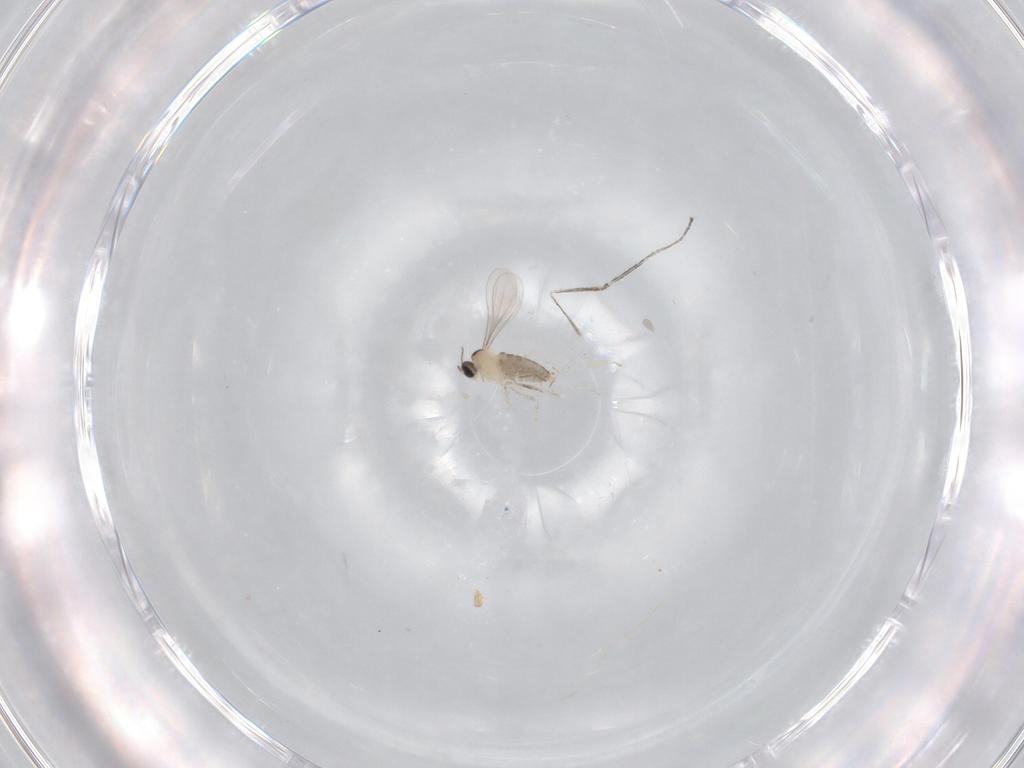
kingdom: Animalia
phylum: Arthropoda
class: Insecta
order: Diptera
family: Cecidomyiidae
